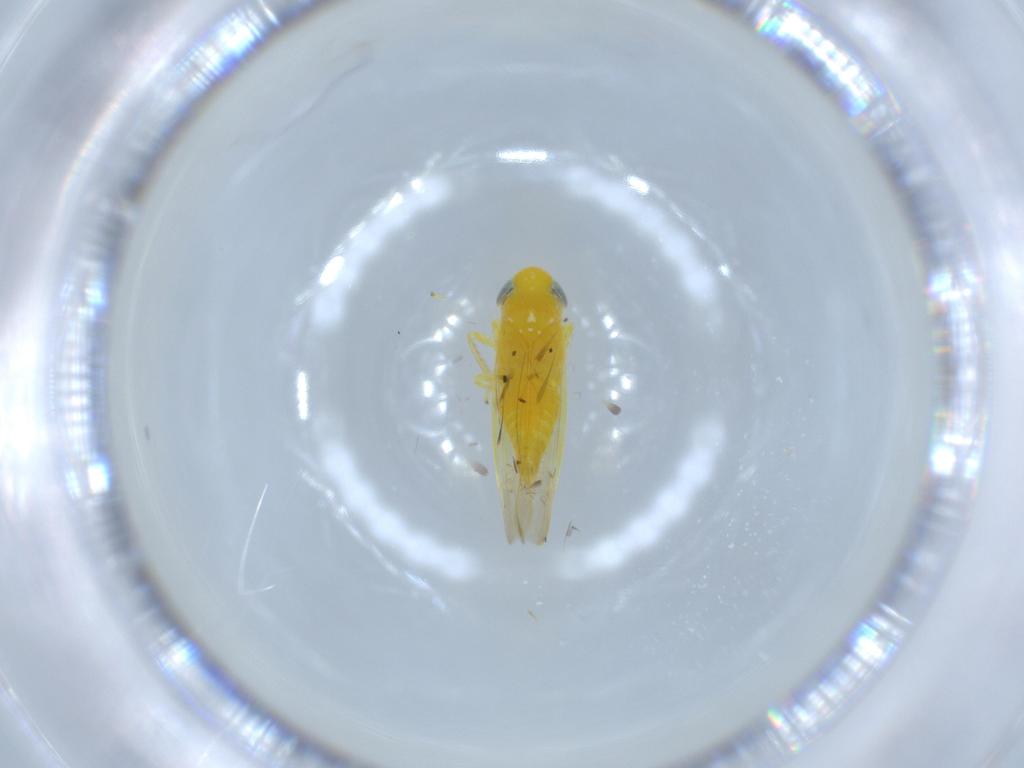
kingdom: Animalia
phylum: Arthropoda
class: Insecta
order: Hemiptera
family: Cicadellidae
